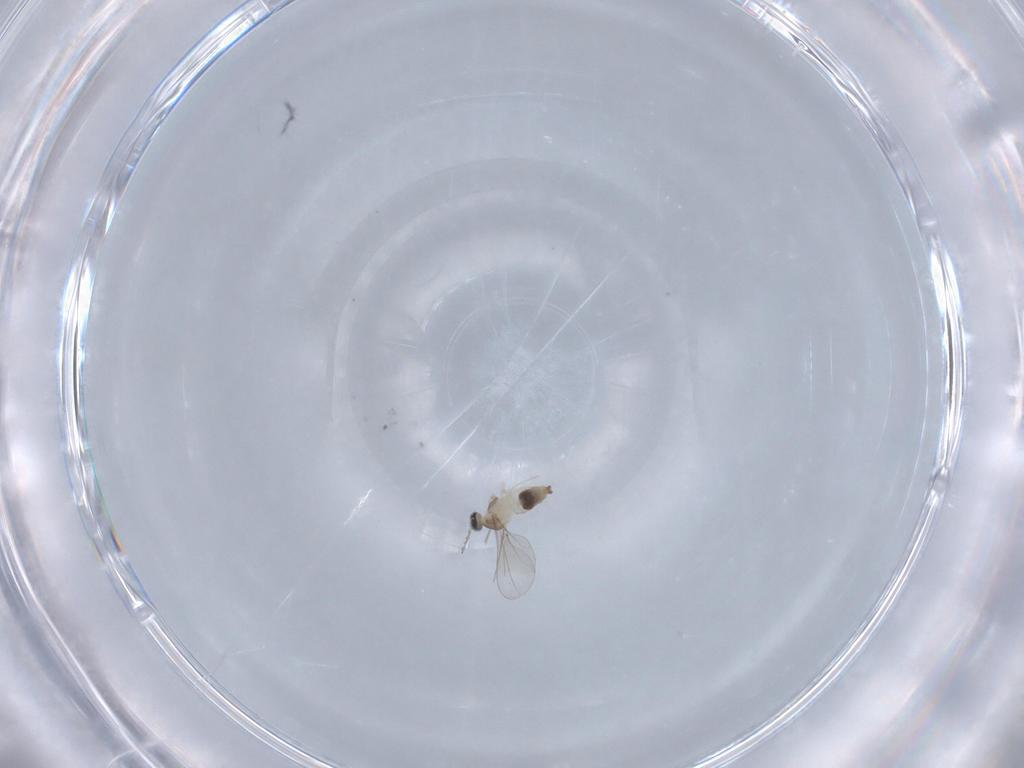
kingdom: Animalia
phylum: Arthropoda
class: Insecta
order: Diptera
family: Cecidomyiidae
